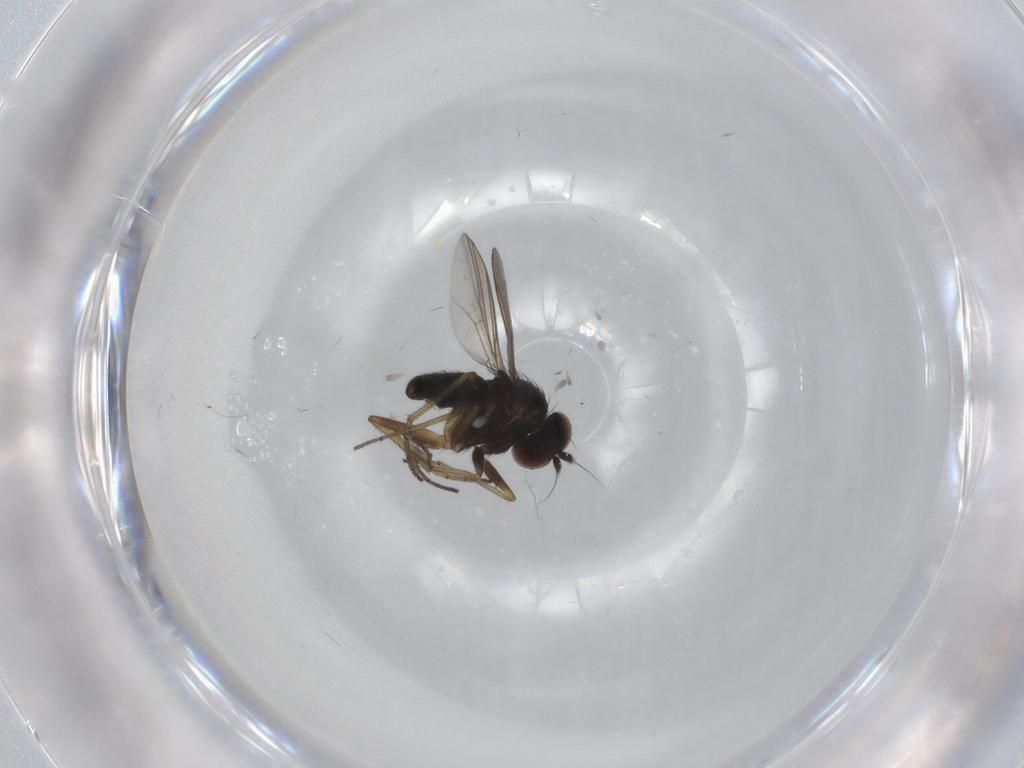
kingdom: Animalia
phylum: Arthropoda
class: Insecta
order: Diptera
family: Dolichopodidae
